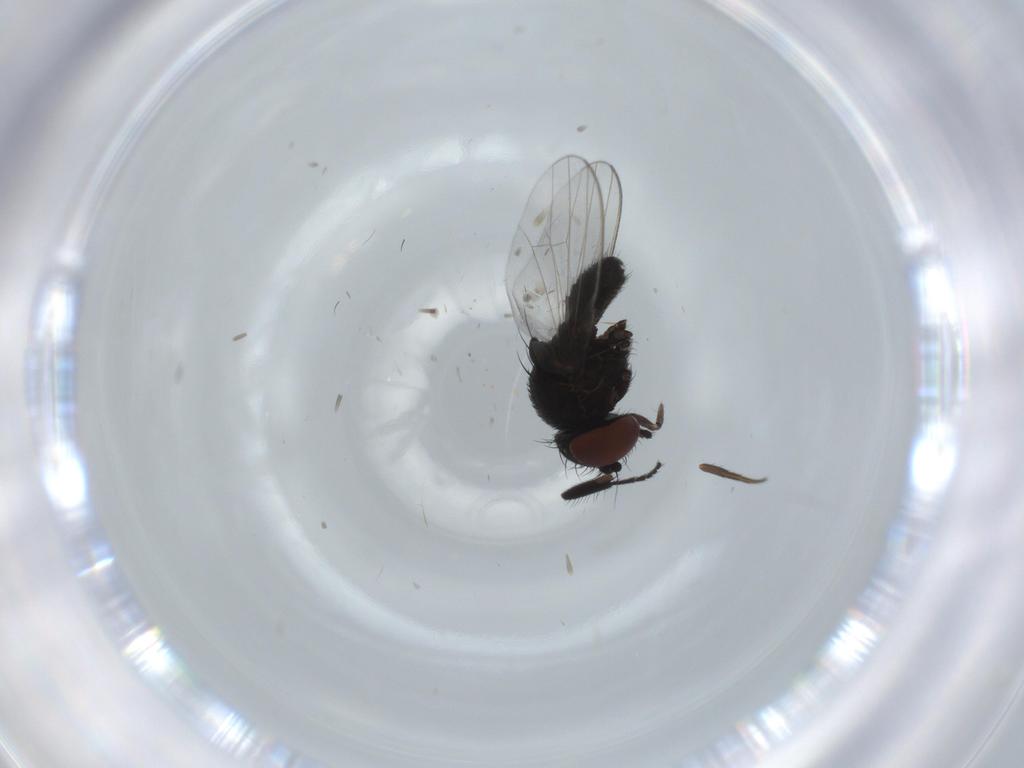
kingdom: Animalia
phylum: Arthropoda
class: Insecta
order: Diptera
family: Milichiidae
